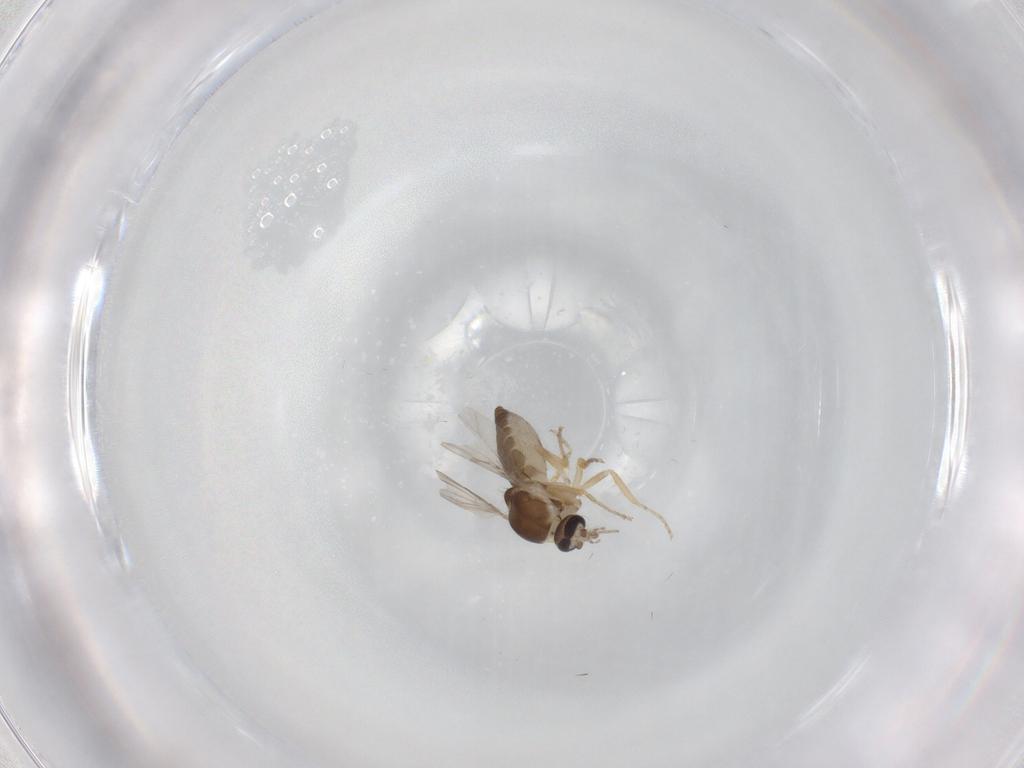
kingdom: Animalia
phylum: Arthropoda
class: Insecta
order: Diptera
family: Ceratopogonidae
